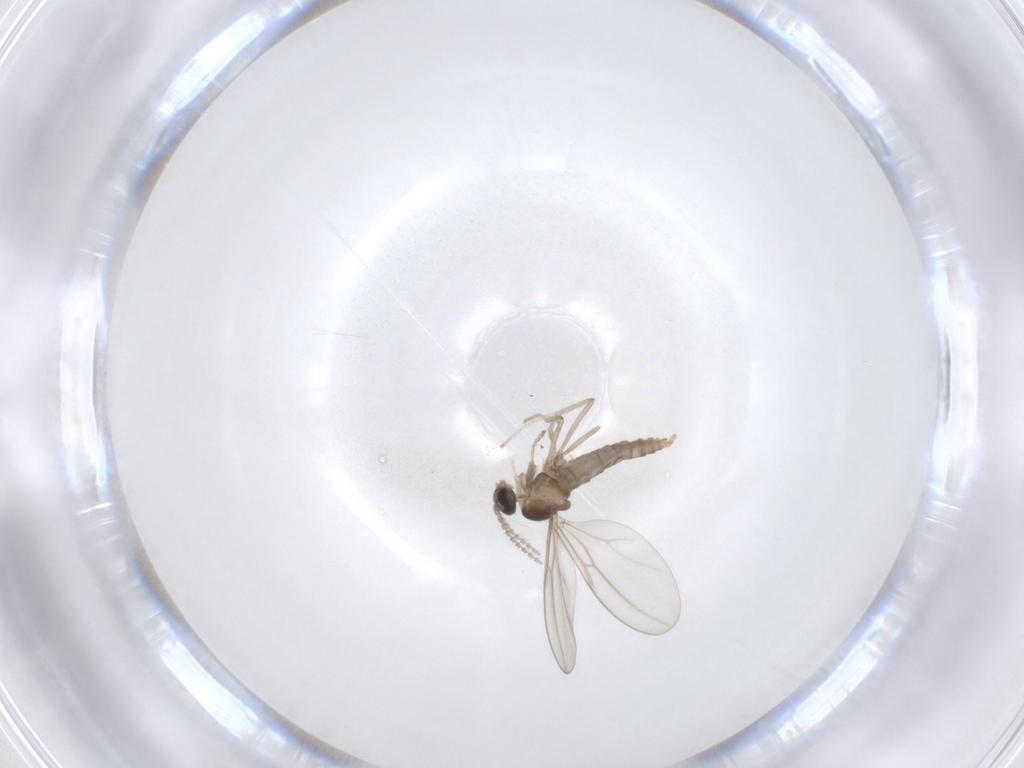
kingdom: Animalia
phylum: Arthropoda
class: Insecta
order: Diptera
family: Cecidomyiidae
